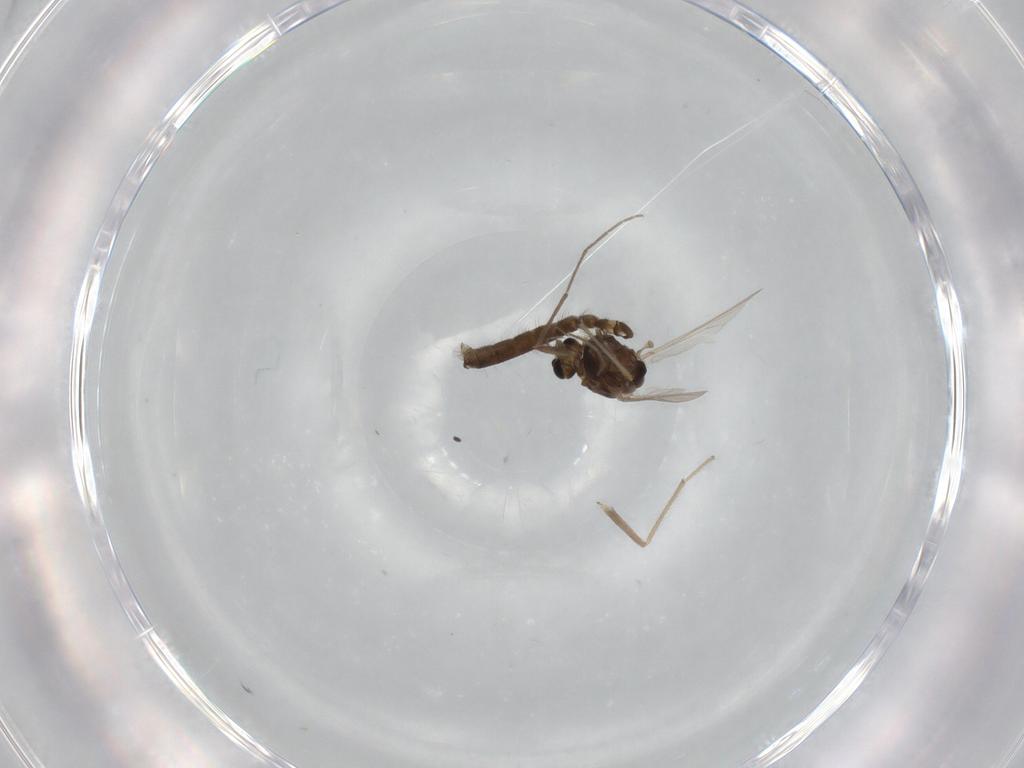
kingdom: Animalia
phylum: Arthropoda
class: Insecta
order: Diptera
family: Chironomidae
